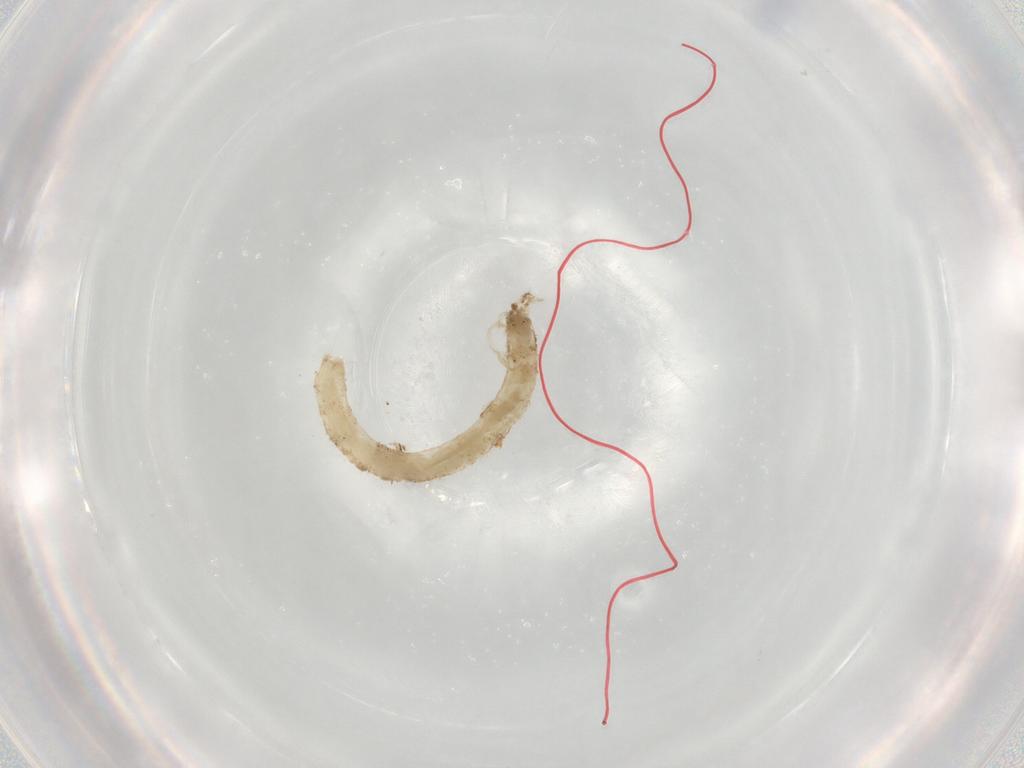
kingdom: Animalia
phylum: Arthropoda
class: Insecta
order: Diptera
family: Chironomidae
